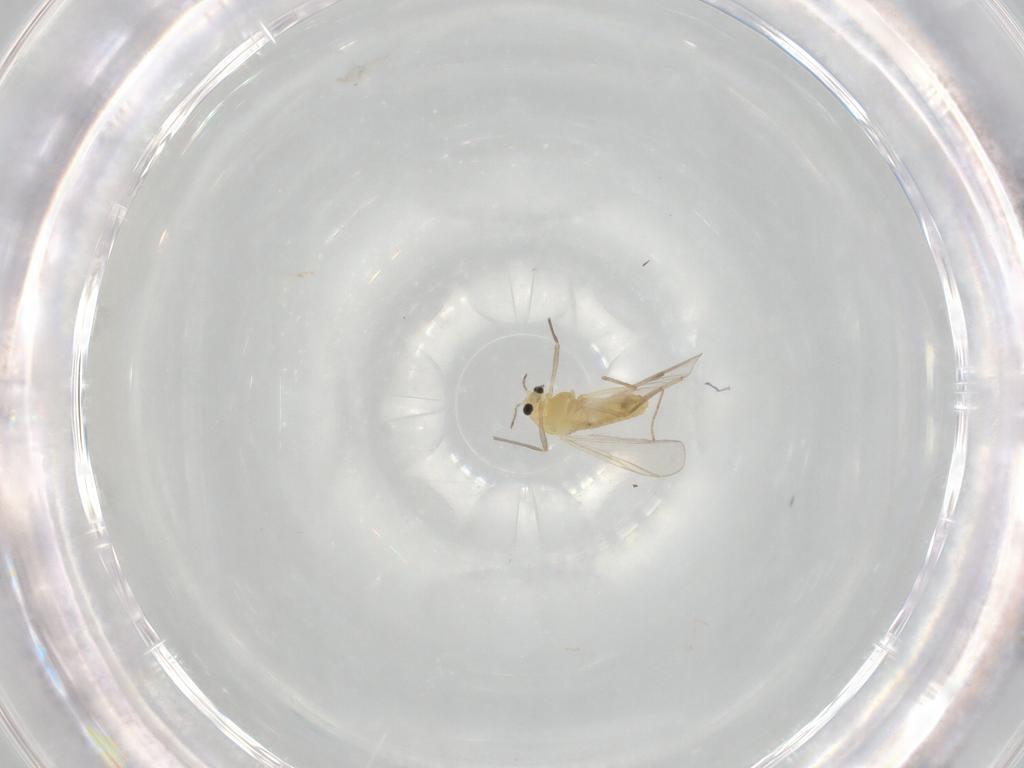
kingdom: Animalia
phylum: Arthropoda
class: Insecta
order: Diptera
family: Chironomidae
